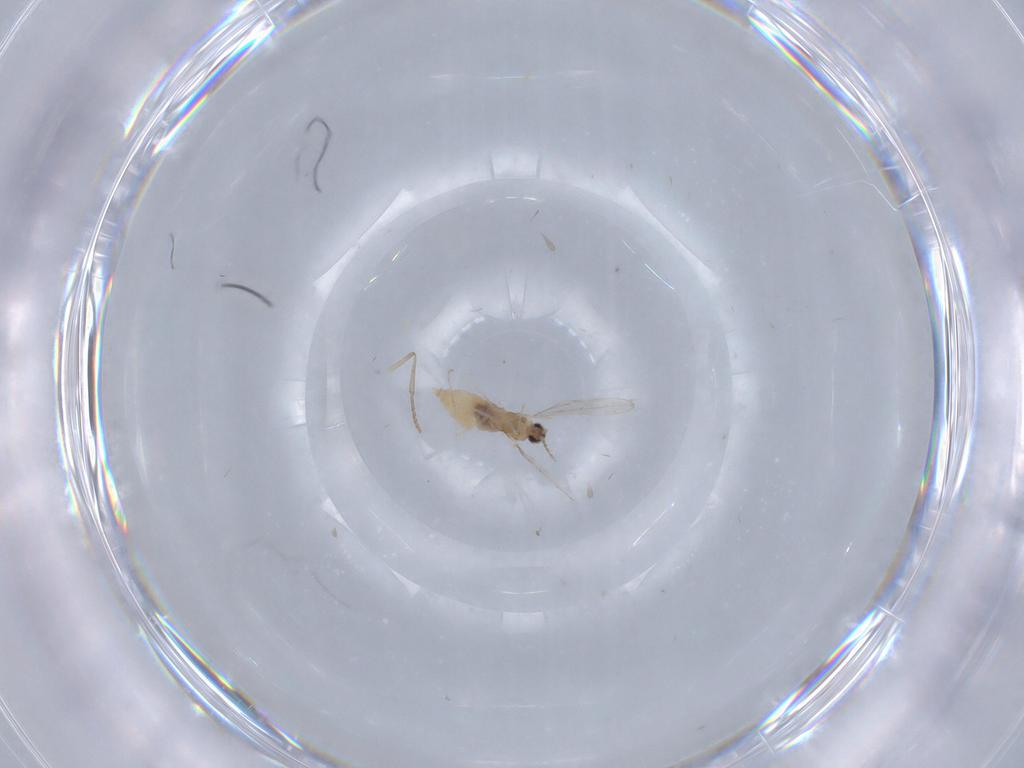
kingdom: Animalia
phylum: Arthropoda
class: Insecta
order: Diptera
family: Cecidomyiidae
